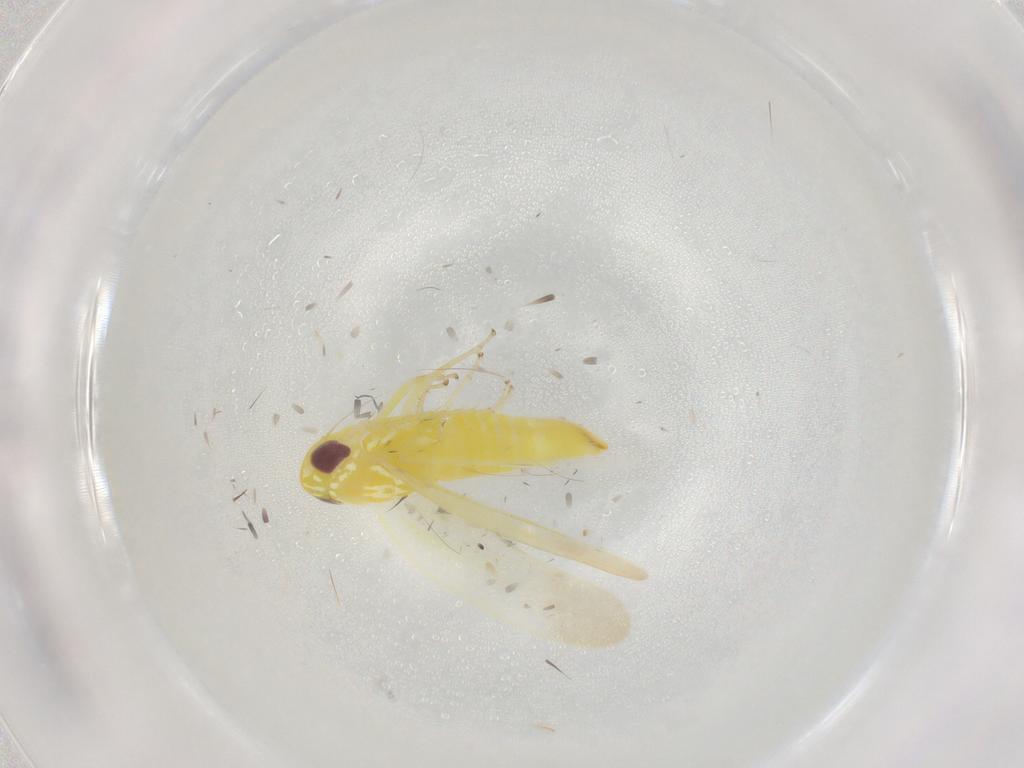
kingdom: Animalia
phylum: Arthropoda
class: Insecta
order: Hemiptera
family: Cicadellidae
